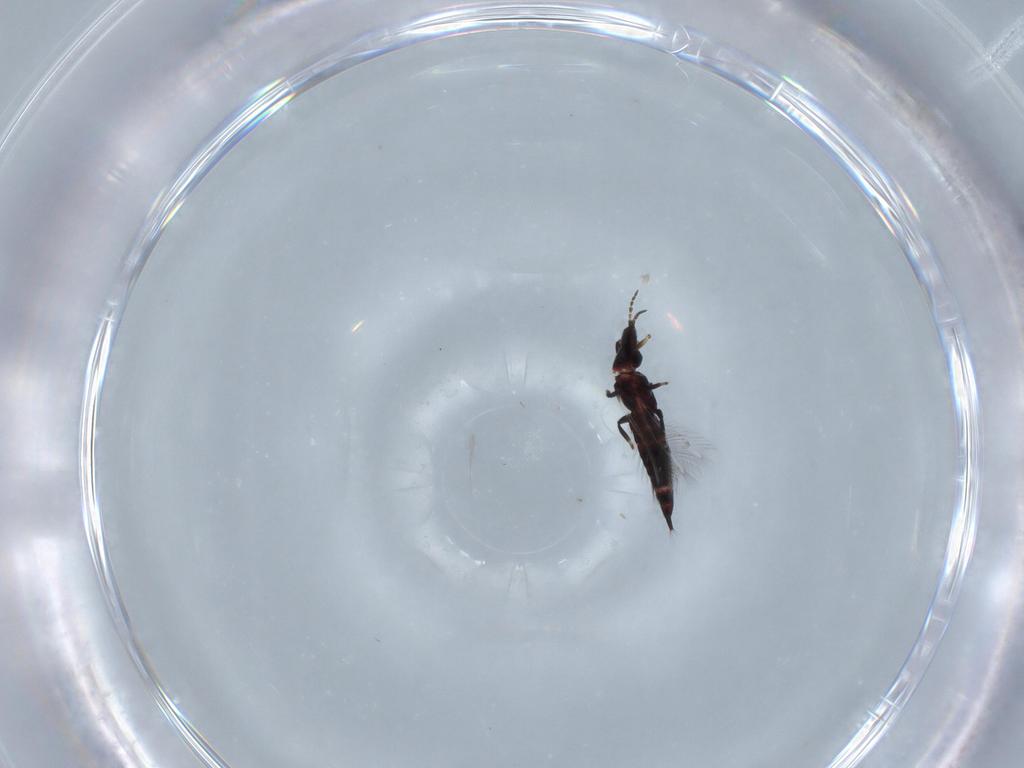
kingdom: Animalia
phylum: Arthropoda
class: Insecta
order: Thysanoptera
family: Phlaeothripidae
